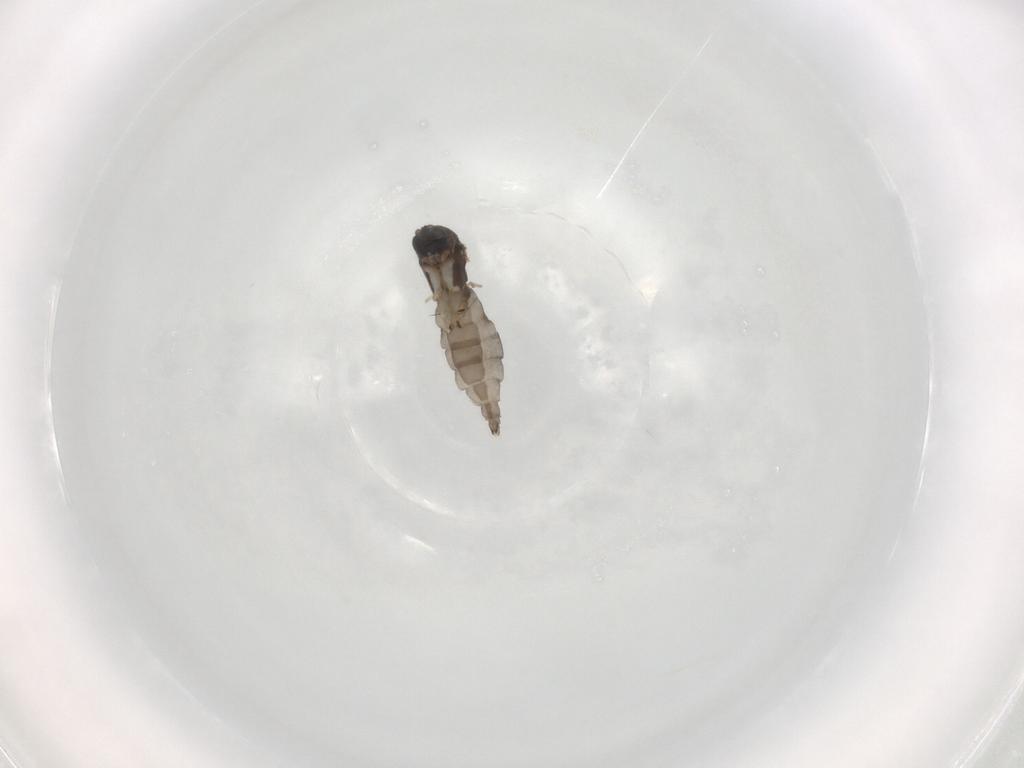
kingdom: Animalia
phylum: Arthropoda
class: Insecta
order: Diptera
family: Sciaridae
